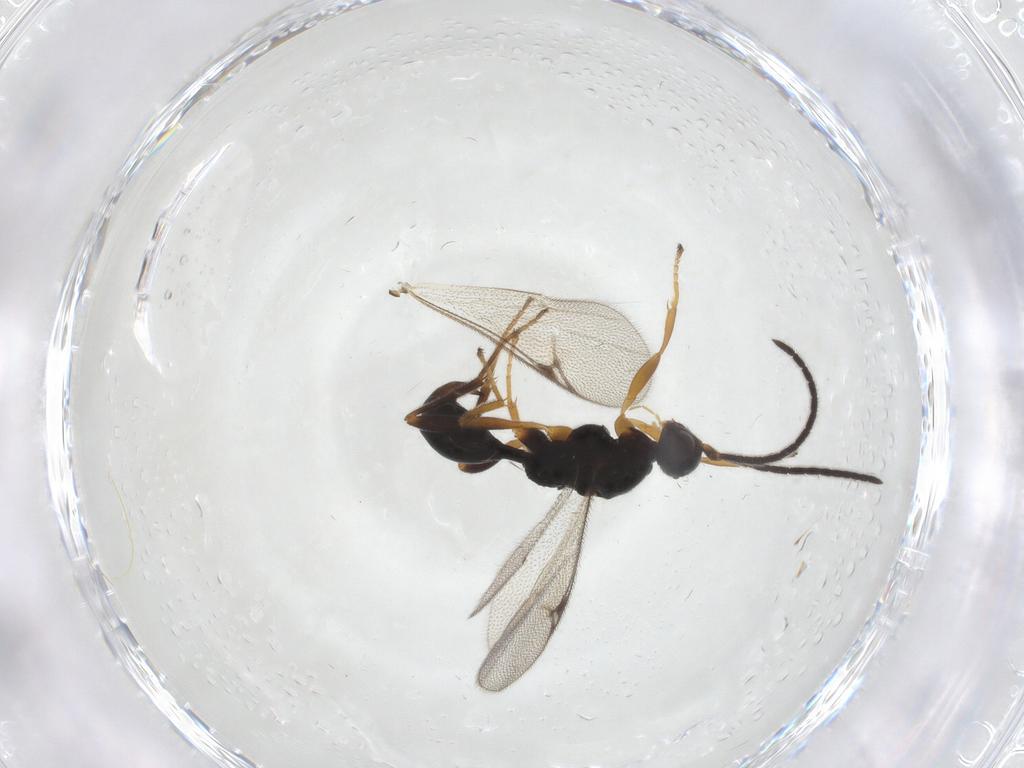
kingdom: Animalia
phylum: Arthropoda
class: Insecta
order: Hymenoptera
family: Proctotrupidae
